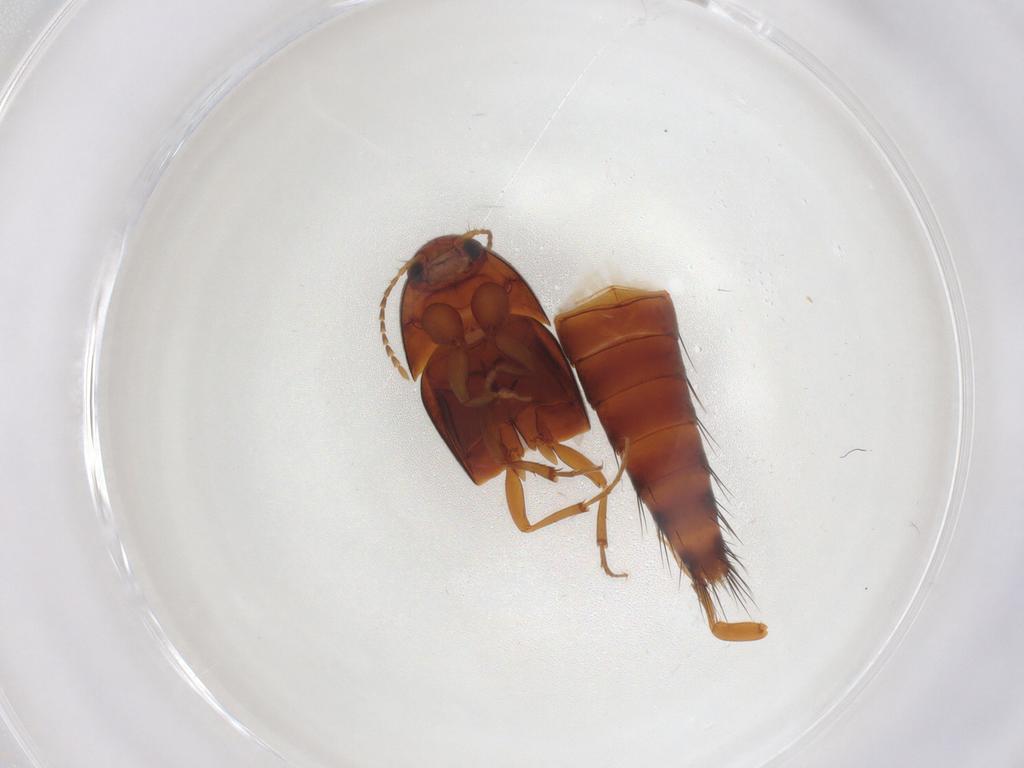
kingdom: Animalia
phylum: Arthropoda
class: Insecta
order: Coleoptera
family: Staphylinidae
